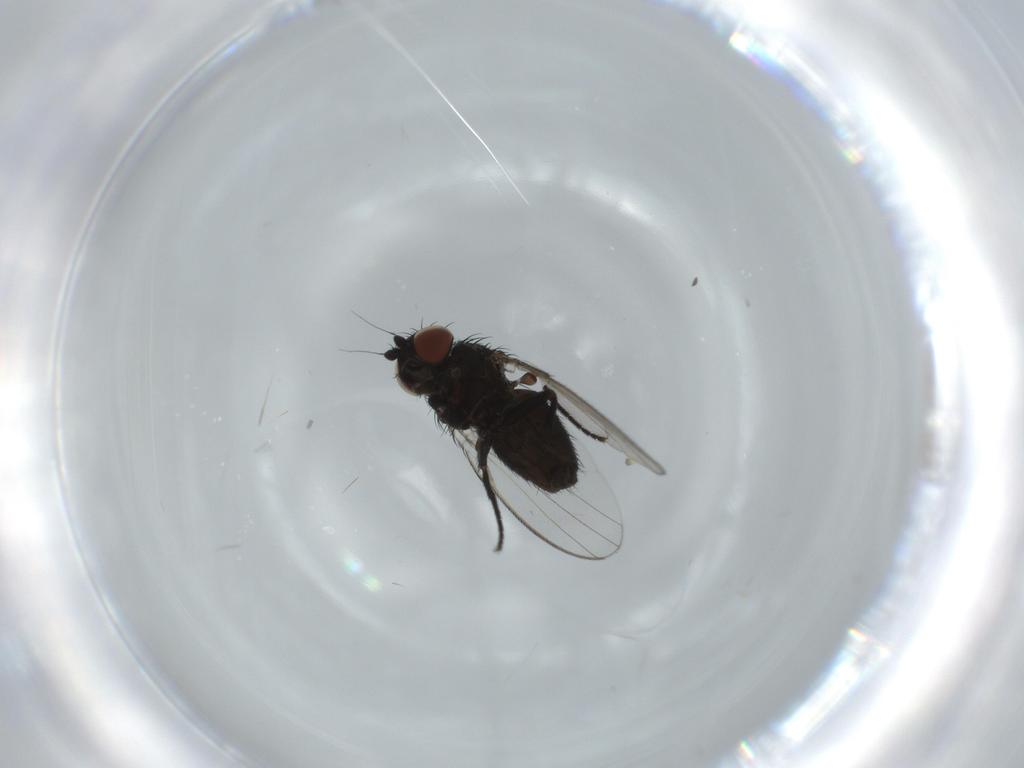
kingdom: Animalia
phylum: Arthropoda
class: Insecta
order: Diptera
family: Milichiidae
